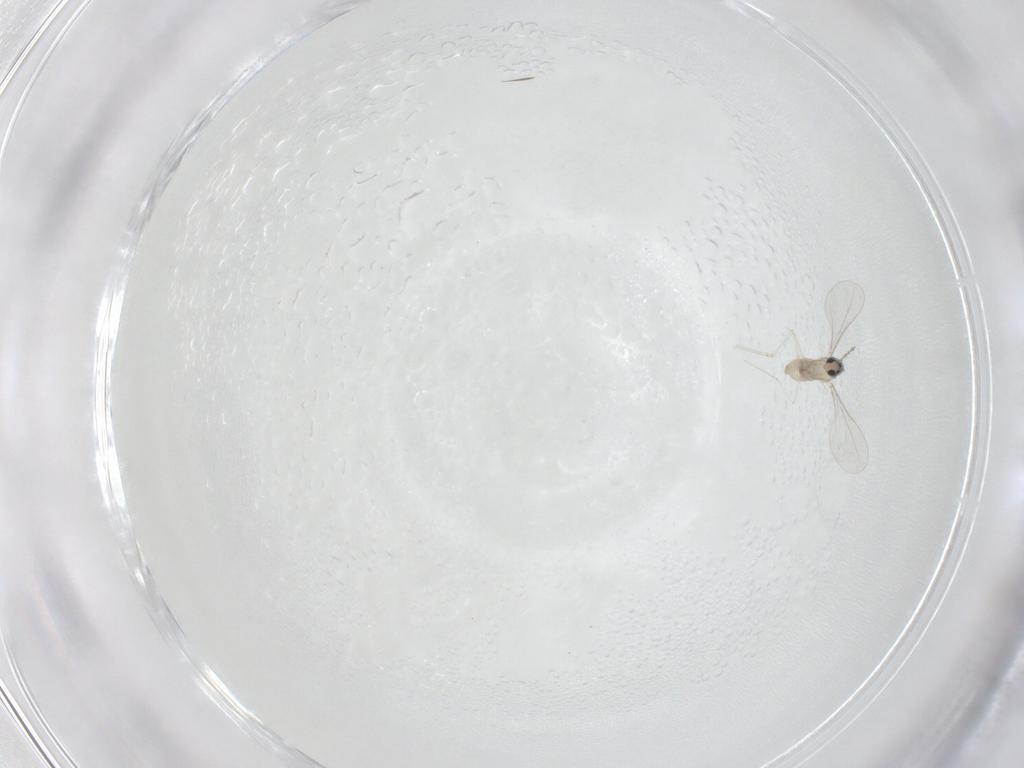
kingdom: Animalia
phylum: Arthropoda
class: Insecta
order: Diptera
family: Cecidomyiidae
